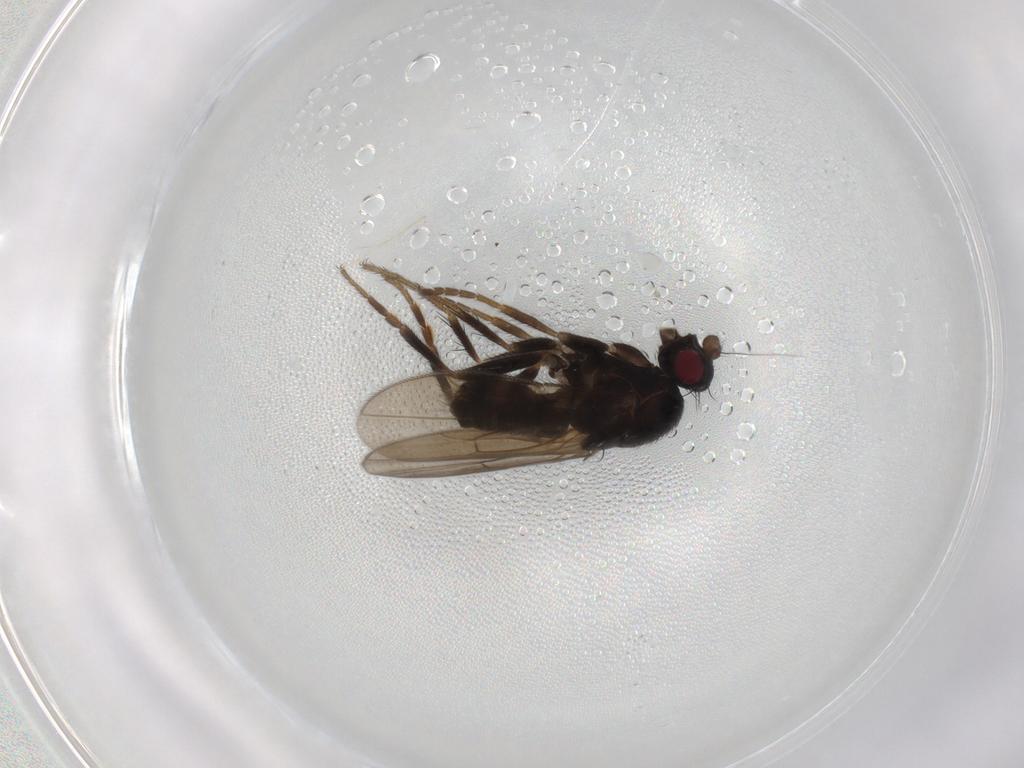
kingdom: Animalia
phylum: Arthropoda
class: Insecta
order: Diptera
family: Sphaeroceridae
